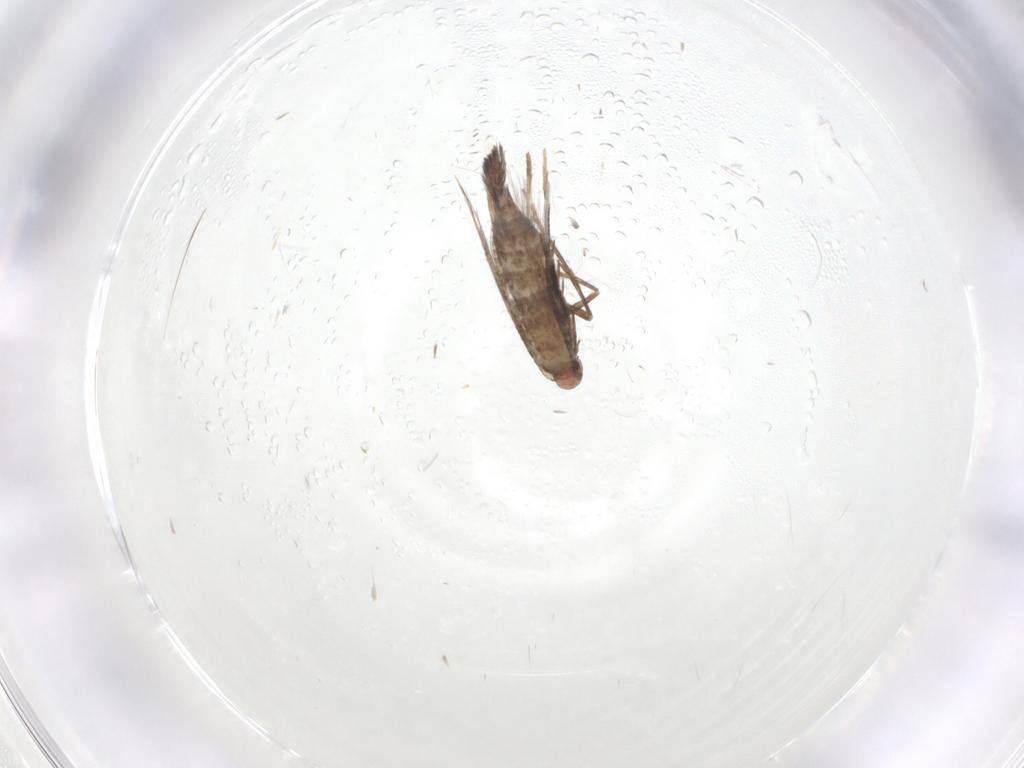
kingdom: Animalia
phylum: Arthropoda
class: Insecta
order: Lepidoptera
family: Gracillariidae
